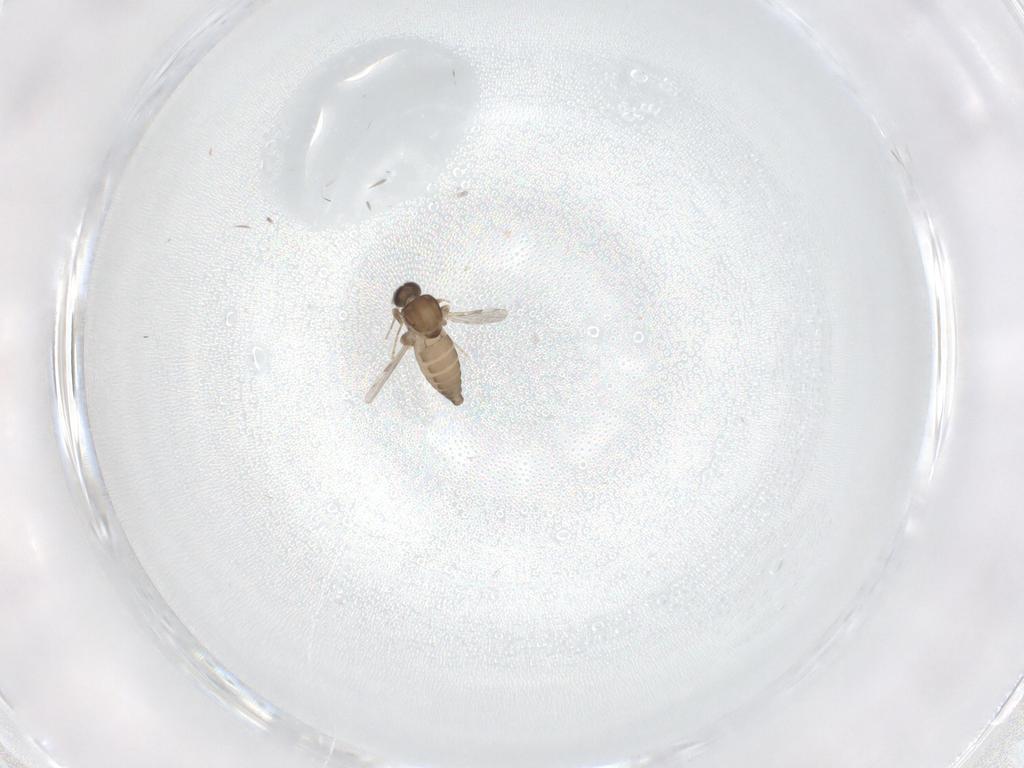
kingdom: Animalia
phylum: Arthropoda
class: Insecta
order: Diptera
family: Ceratopogonidae
